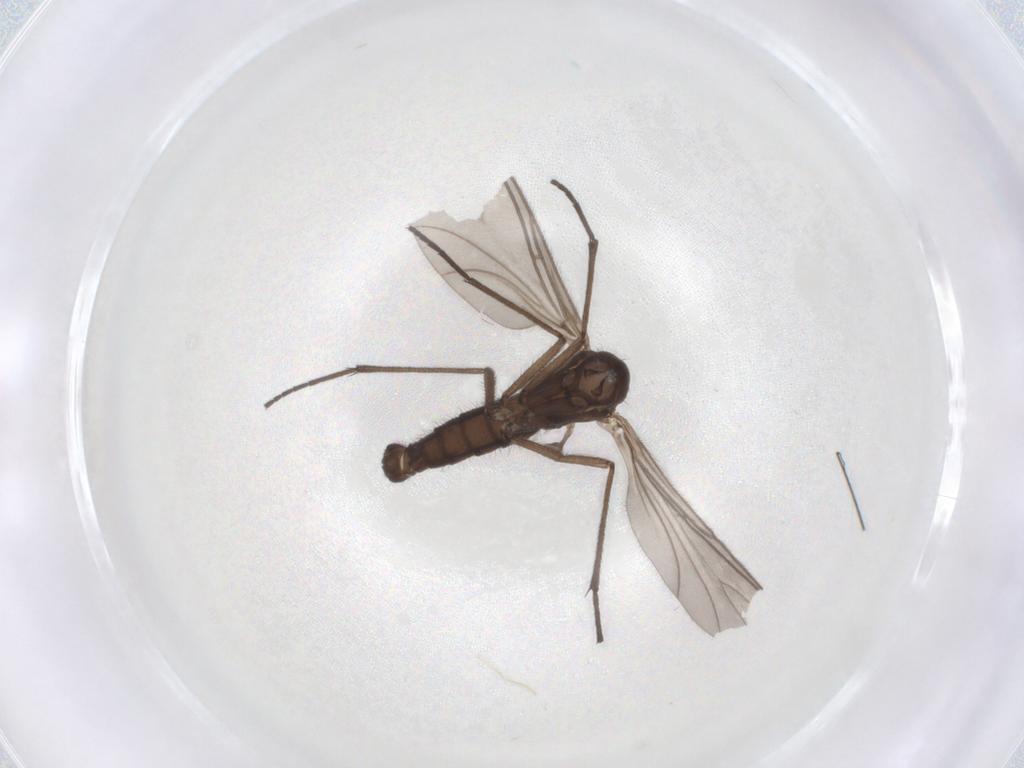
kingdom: Animalia
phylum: Arthropoda
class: Insecta
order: Diptera
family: Sciaridae
